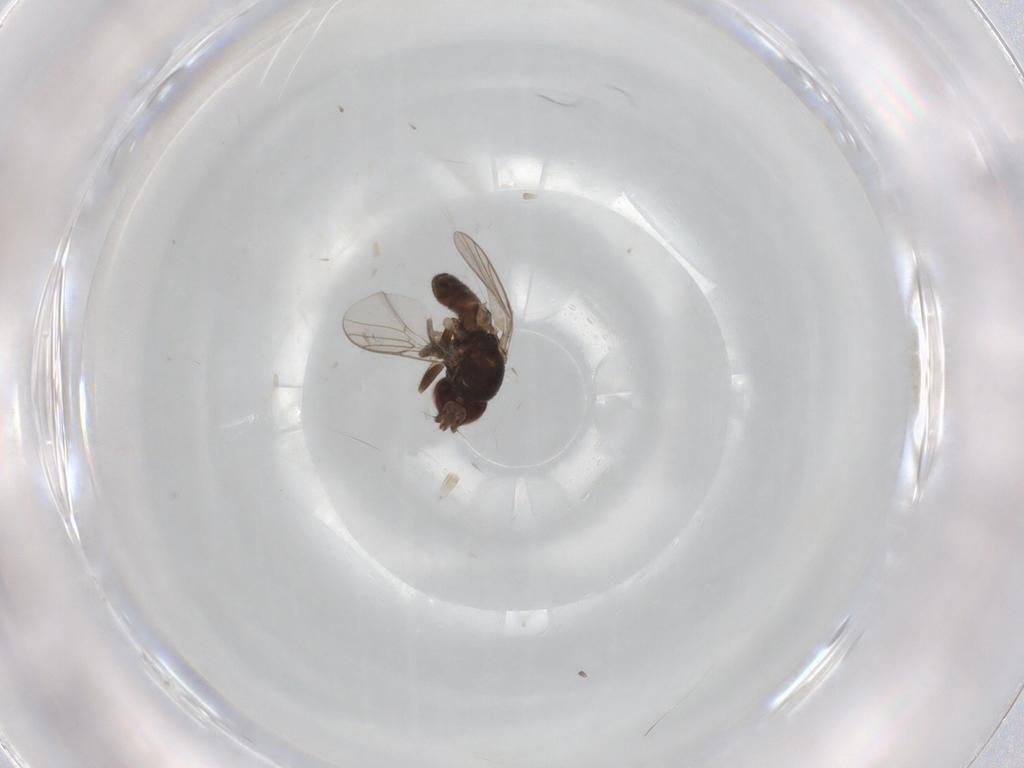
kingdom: Animalia
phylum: Arthropoda
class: Insecta
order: Diptera
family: Chloropidae
